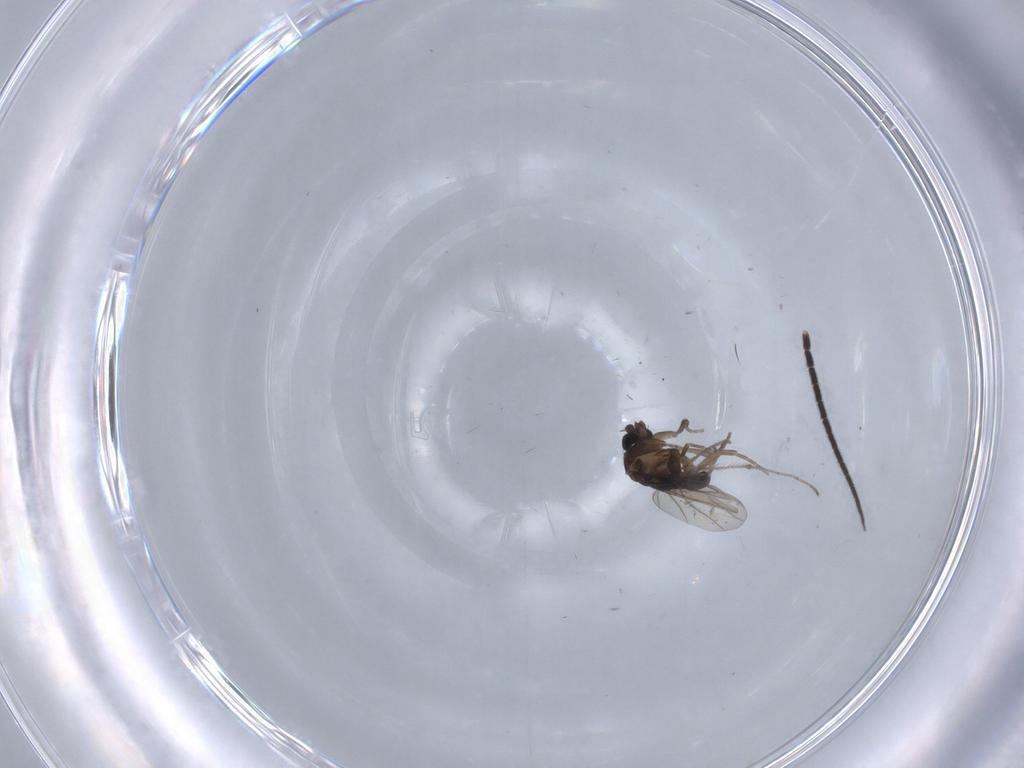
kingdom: Animalia
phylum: Arthropoda
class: Insecta
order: Diptera
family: Phoridae
